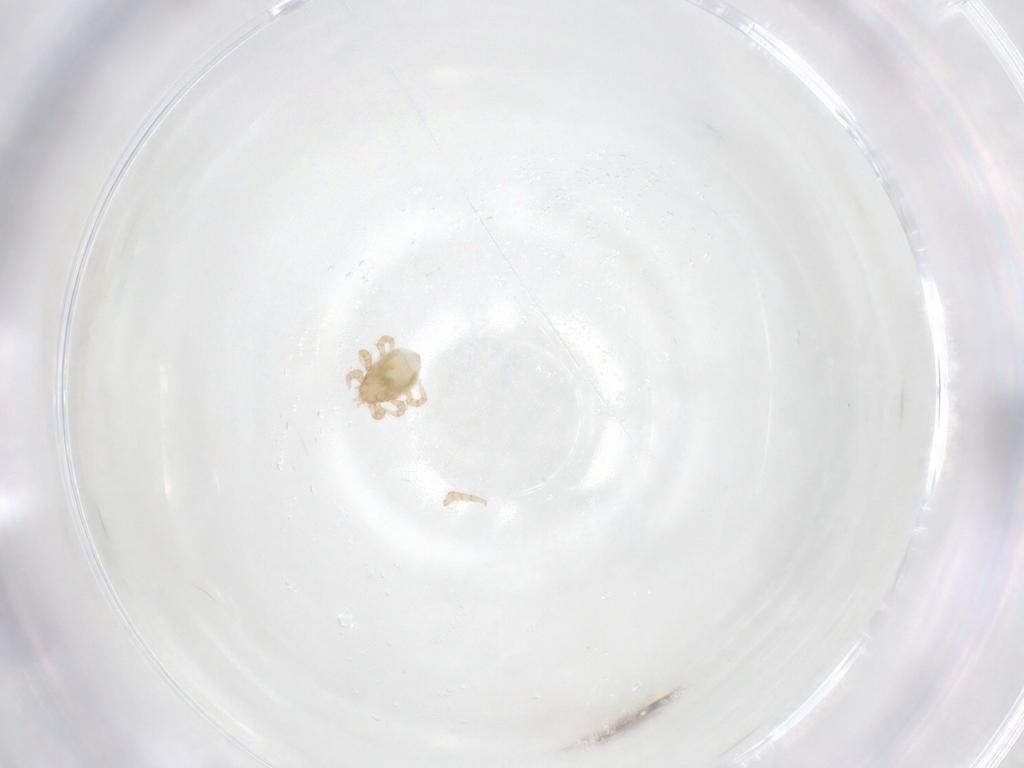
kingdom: Animalia
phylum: Arthropoda
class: Arachnida
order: Mesostigmata
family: Otopheidomenidae
